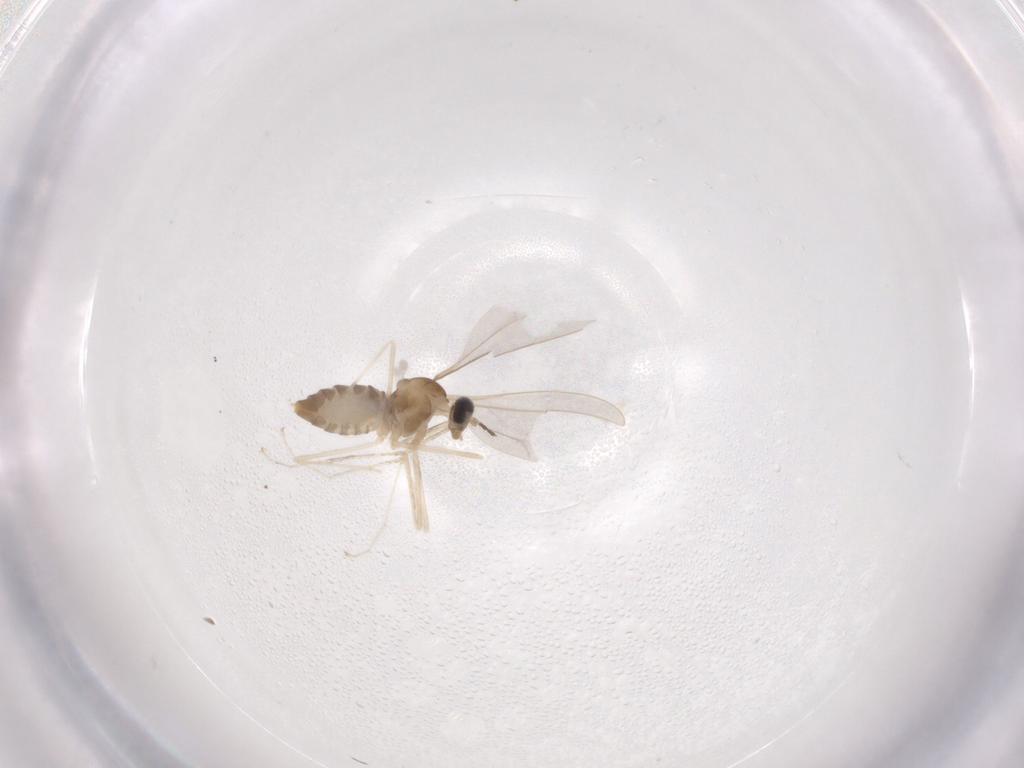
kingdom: Animalia
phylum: Arthropoda
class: Insecta
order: Diptera
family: Cecidomyiidae
